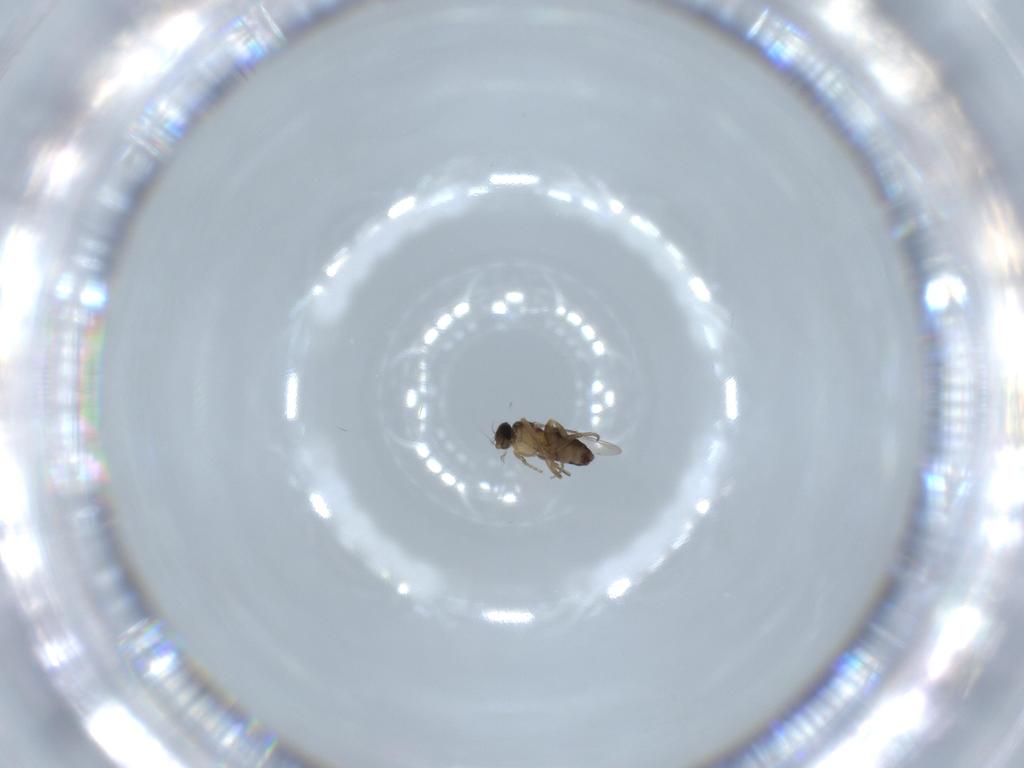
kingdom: Animalia
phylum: Arthropoda
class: Insecta
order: Diptera
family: Phoridae
